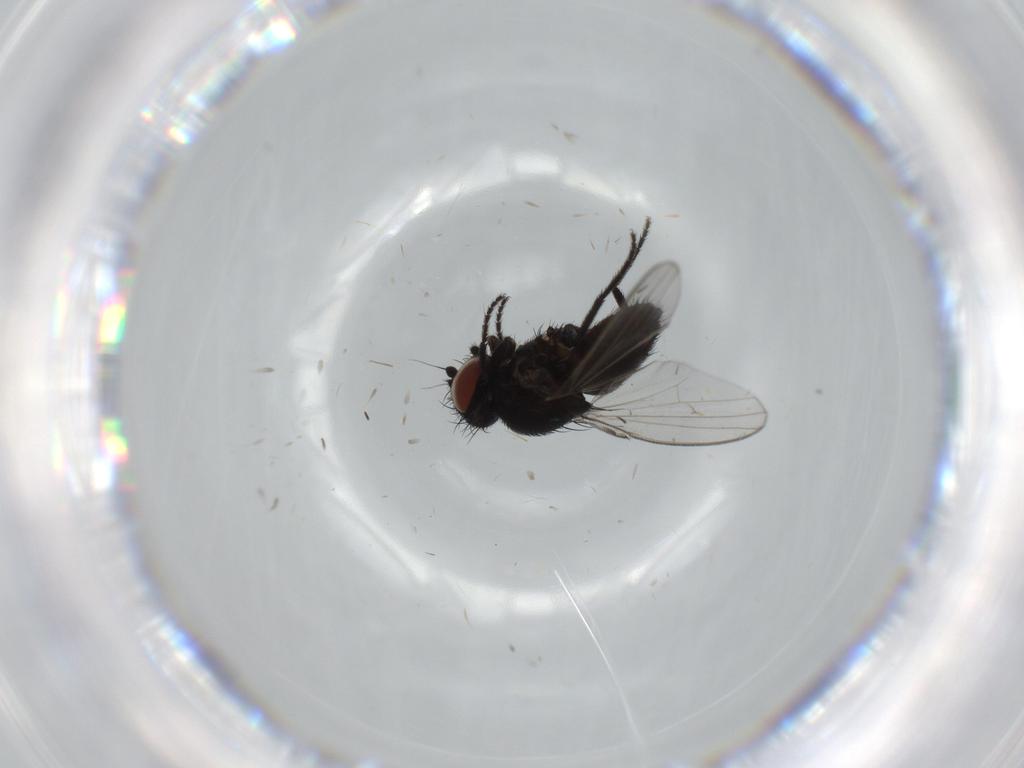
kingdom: Animalia
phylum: Arthropoda
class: Insecta
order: Diptera
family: Milichiidae
